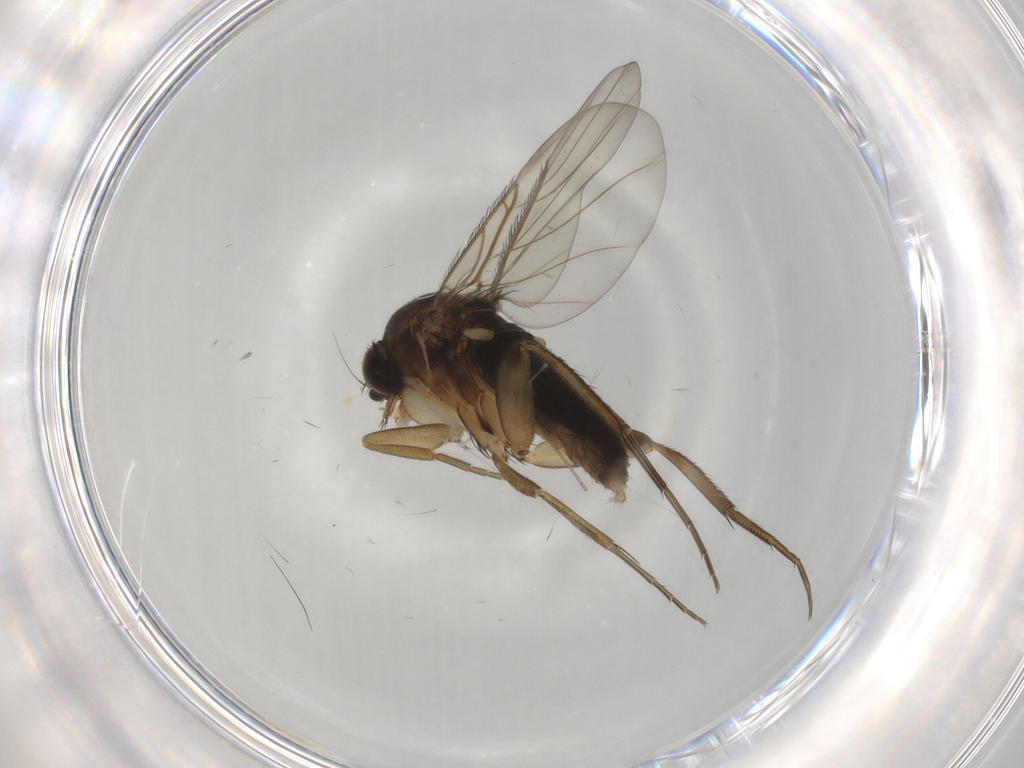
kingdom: Animalia
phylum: Arthropoda
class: Insecta
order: Diptera
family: Phoridae
